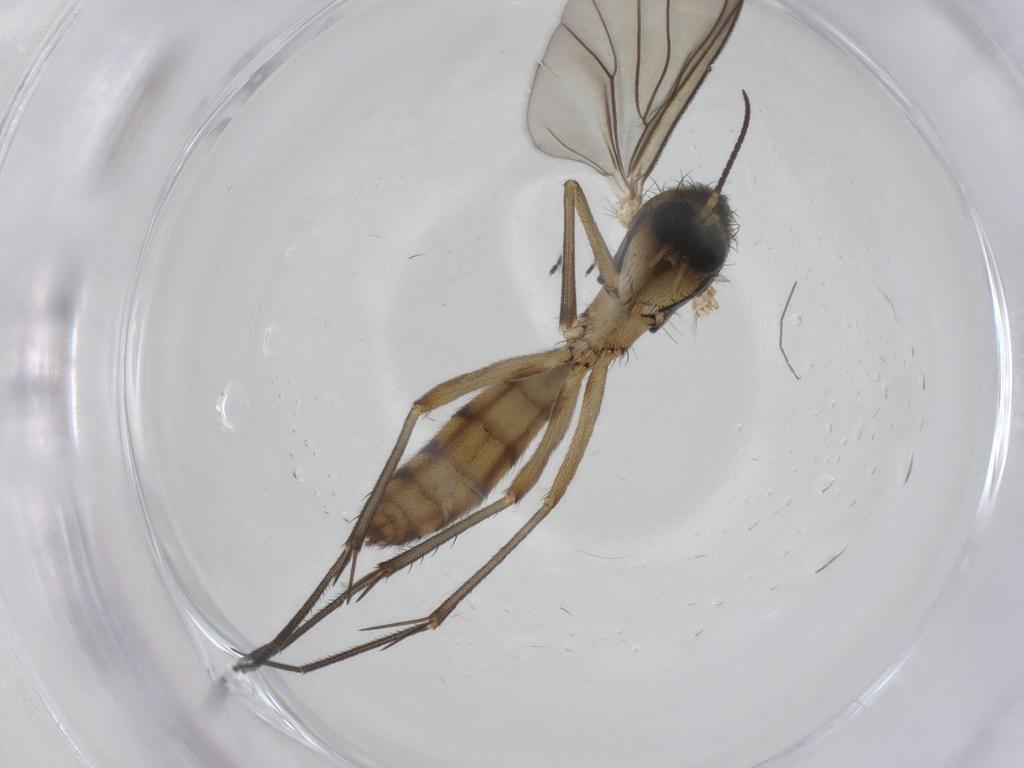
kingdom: Animalia
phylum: Arthropoda
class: Insecta
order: Diptera
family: Mycetophilidae
